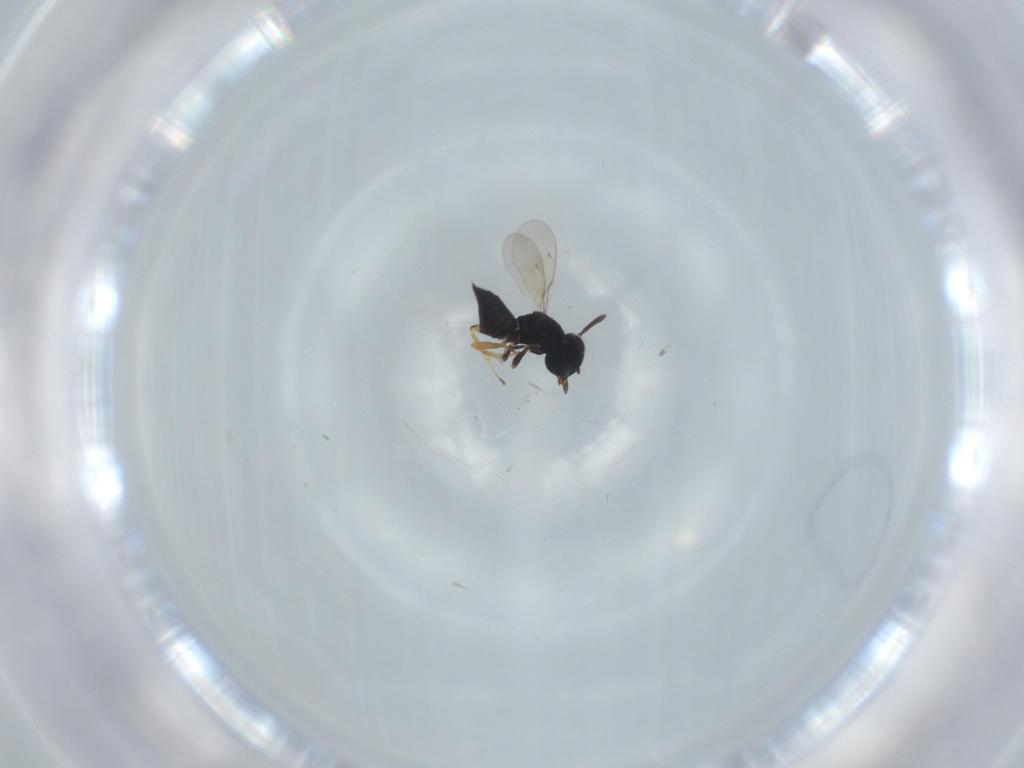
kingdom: Animalia
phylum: Arthropoda
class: Insecta
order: Hymenoptera
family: Pteromalidae
